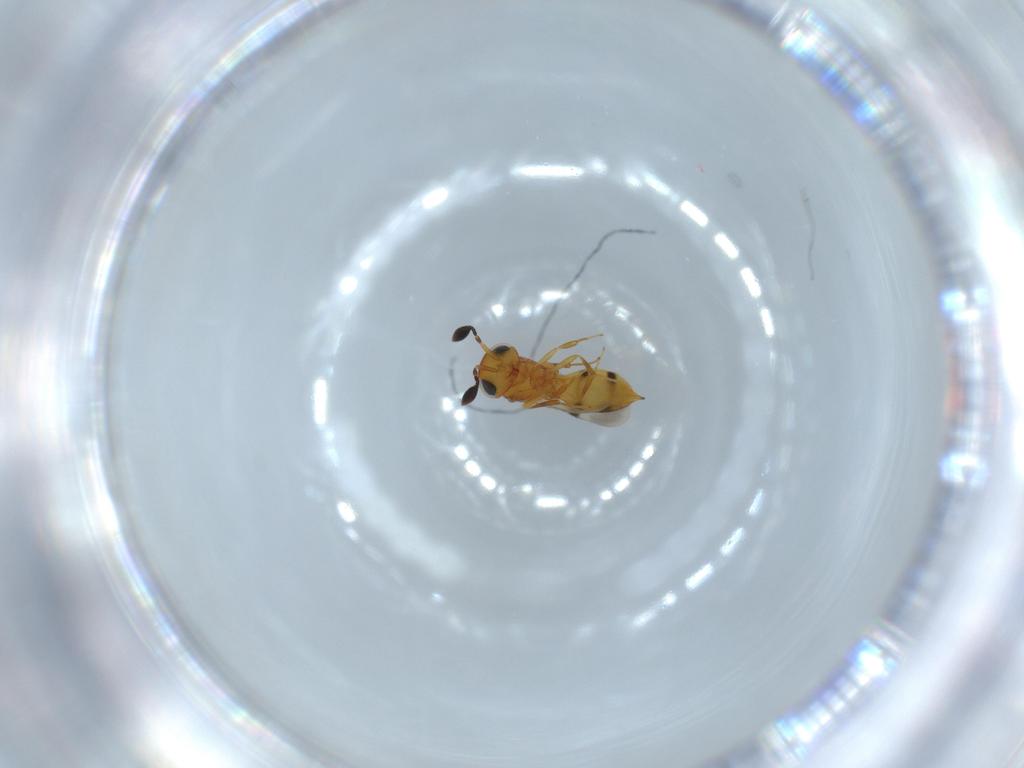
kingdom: Animalia
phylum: Arthropoda
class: Insecta
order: Hymenoptera
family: Scelionidae
